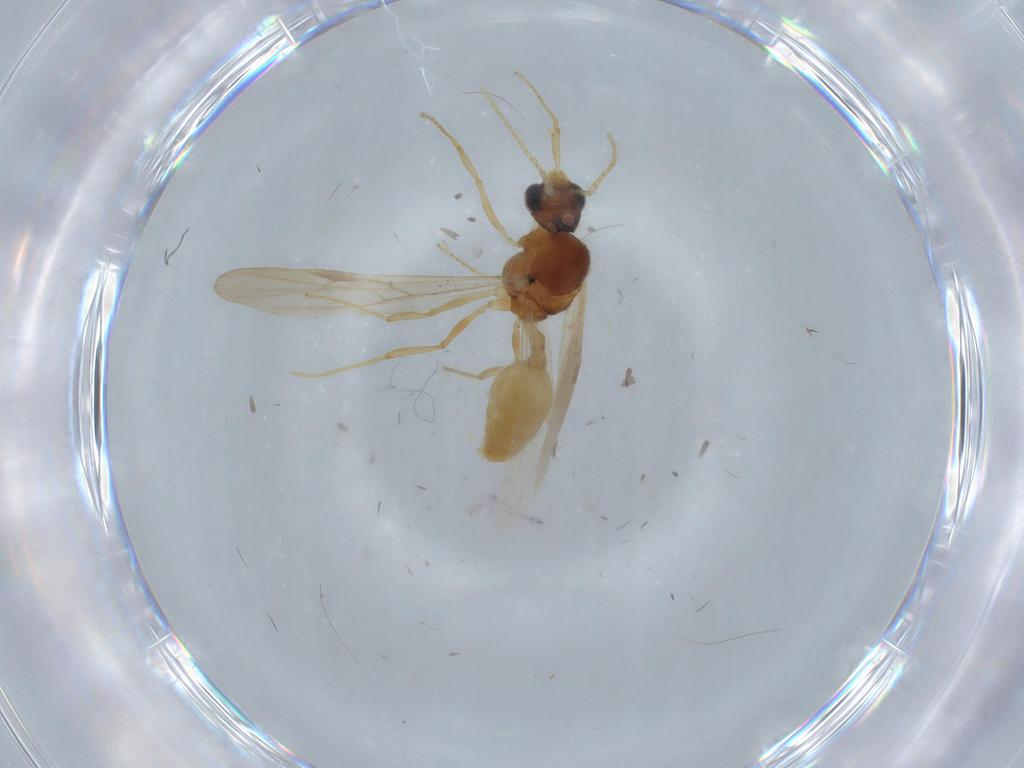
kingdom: Animalia
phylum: Arthropoda
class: Insecta
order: Hymenoptera
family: Formicidae
